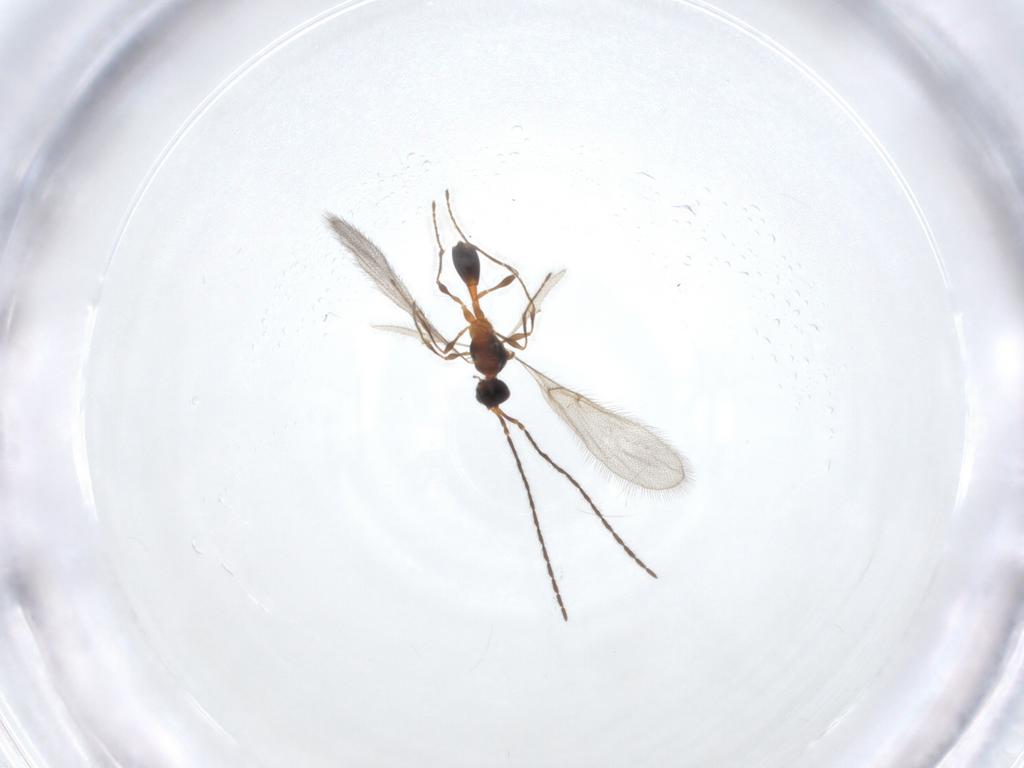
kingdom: Animalia
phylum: Arthropoda
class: Insecta
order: Hymenoptera
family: Diapriidae
